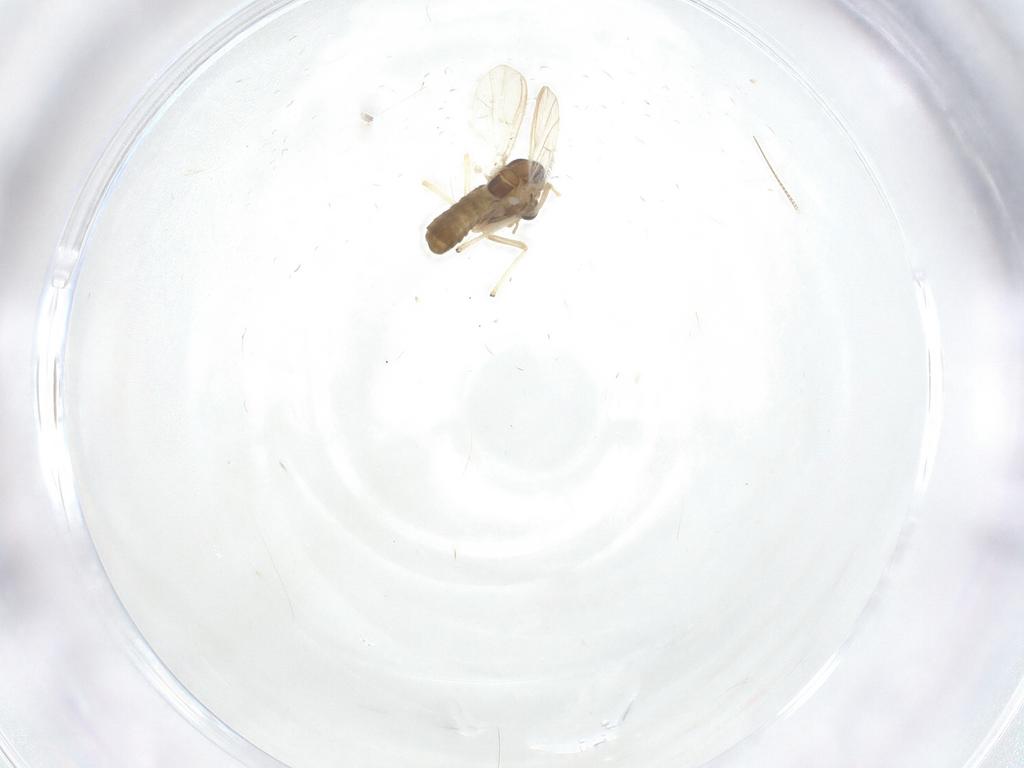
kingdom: Animalia
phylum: Arthropoda
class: Insecta
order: Diptera
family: Chironomidae
